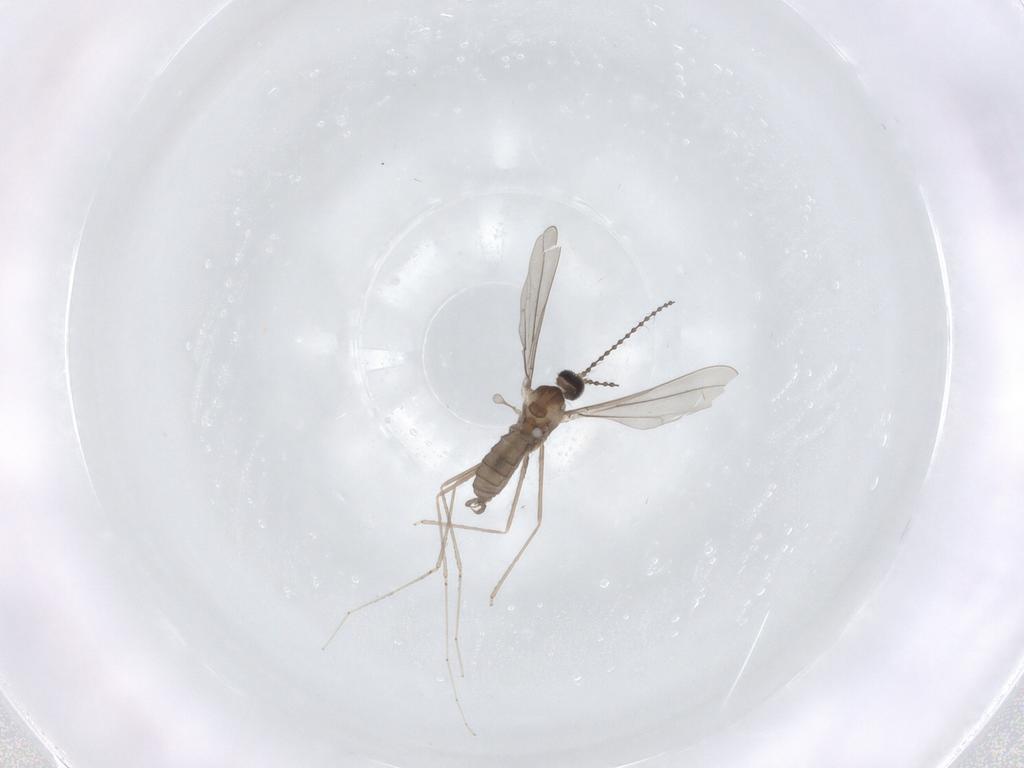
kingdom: Animalia
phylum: Arthropoda
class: Insecta
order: Diptera
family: Cecidomyiidae
